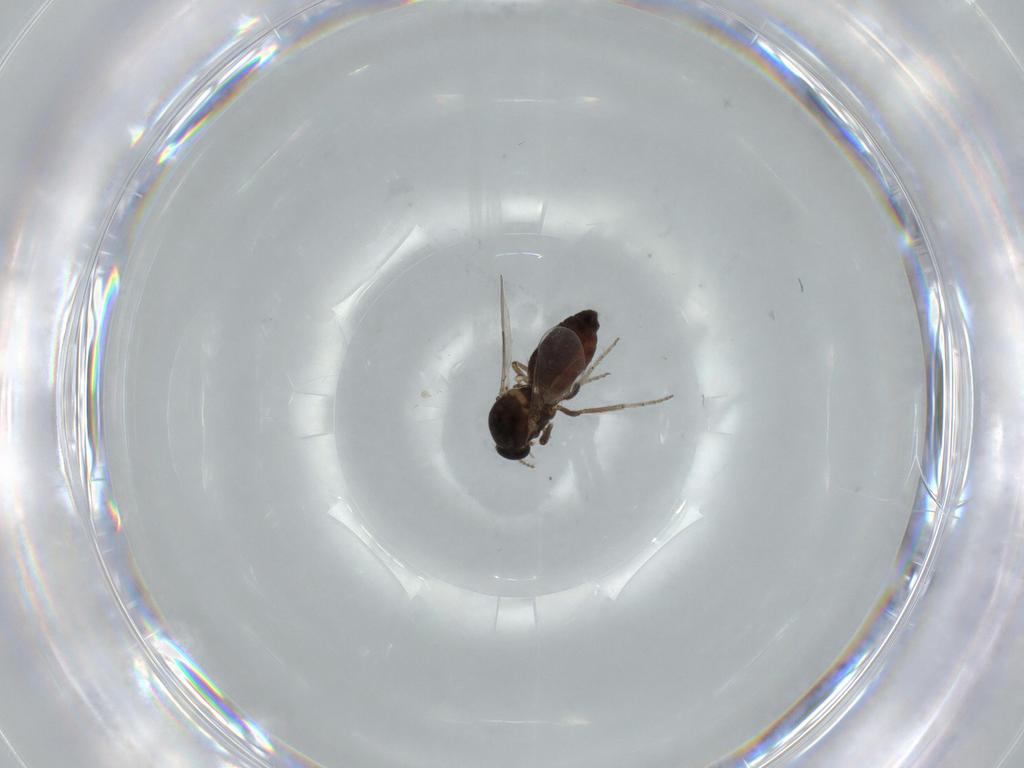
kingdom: Animalia
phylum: Arthropoda
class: Insecta
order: Diptera
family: Ceratopogonidae
